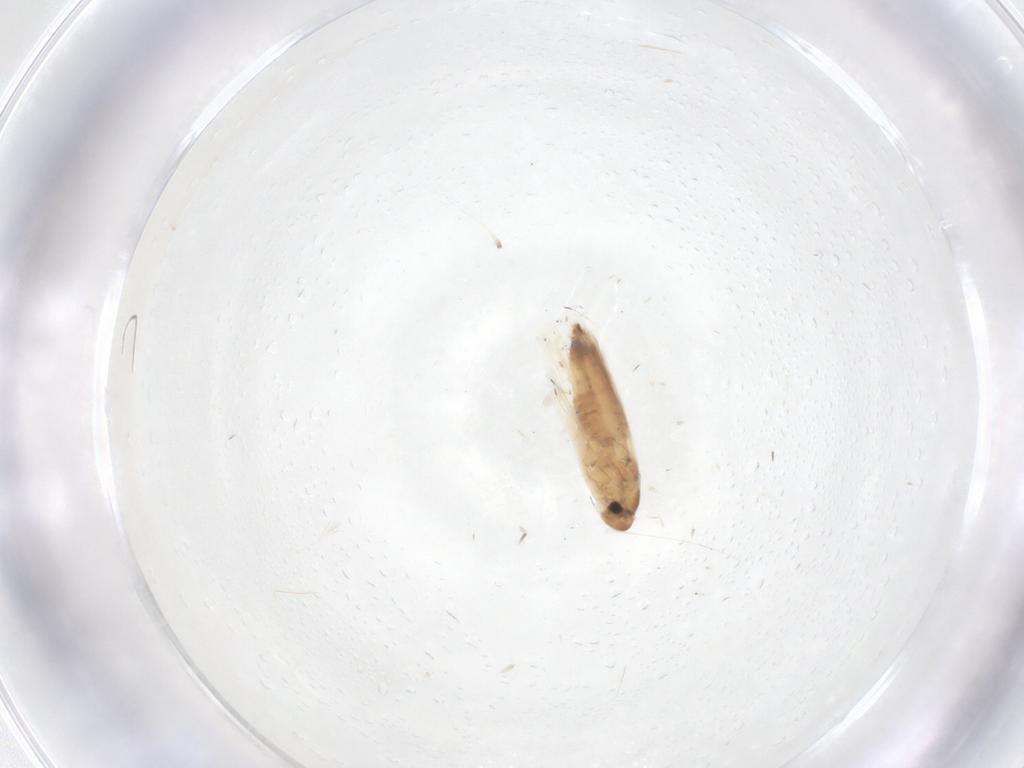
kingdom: Animalia
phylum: Arthropoda
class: Insecta
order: Lepidoptera
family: Heliozelidae
